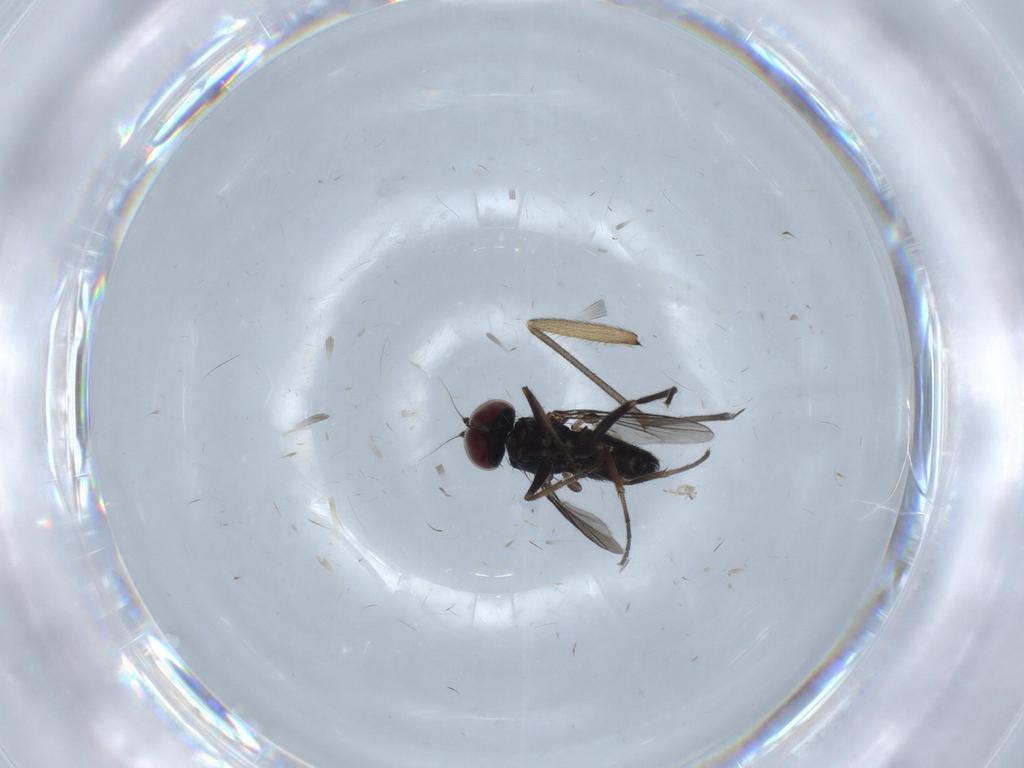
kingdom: Animalia
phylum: Arthropoda
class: Insecta
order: Diptera
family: Dolichopodidae
